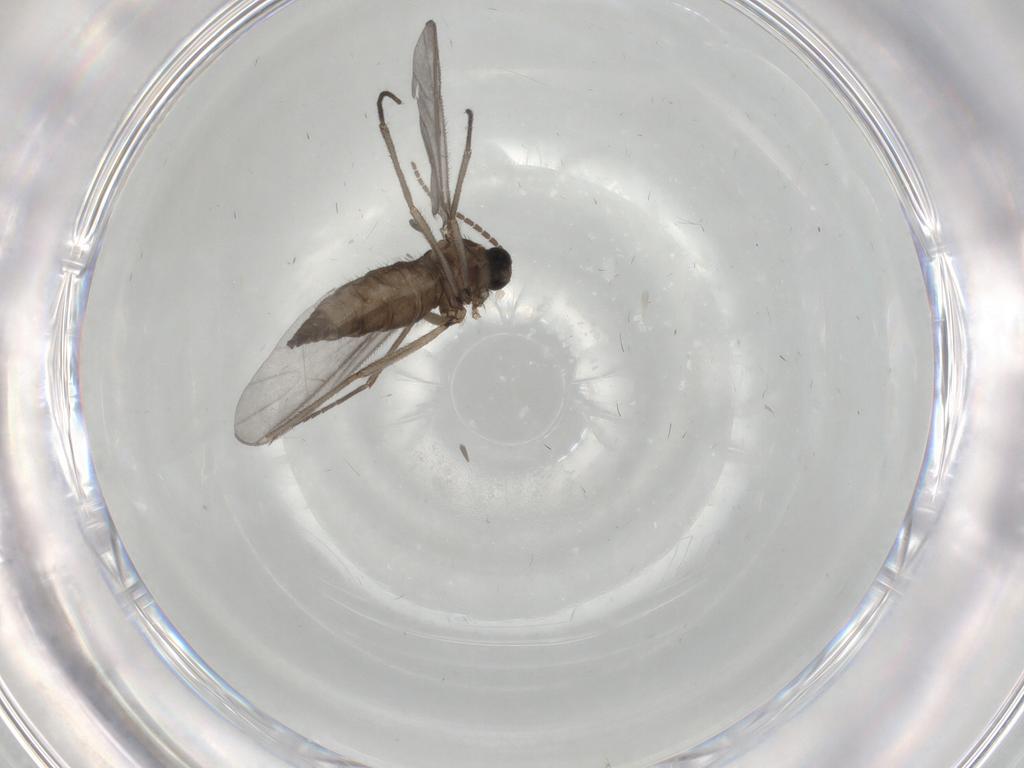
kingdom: Animalia
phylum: Arthropoda
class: Insecta
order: Diptera
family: Sciaridae
